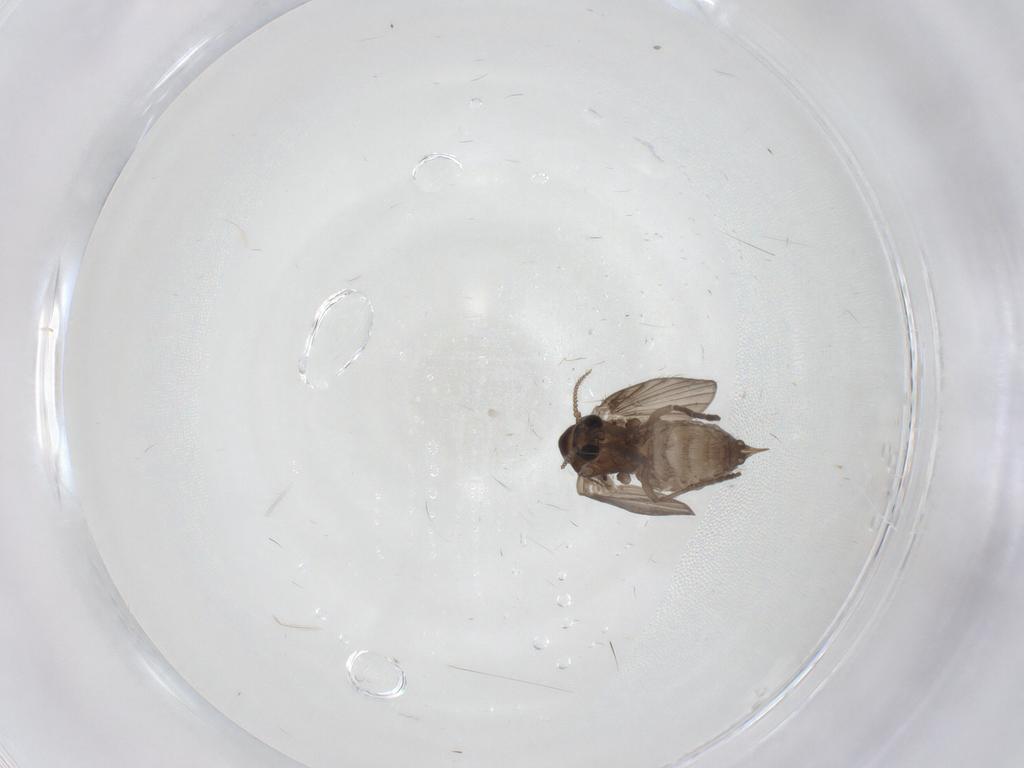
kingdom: Animalia
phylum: Arthropoda
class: Insecta
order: Diptera
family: Psychodidae
